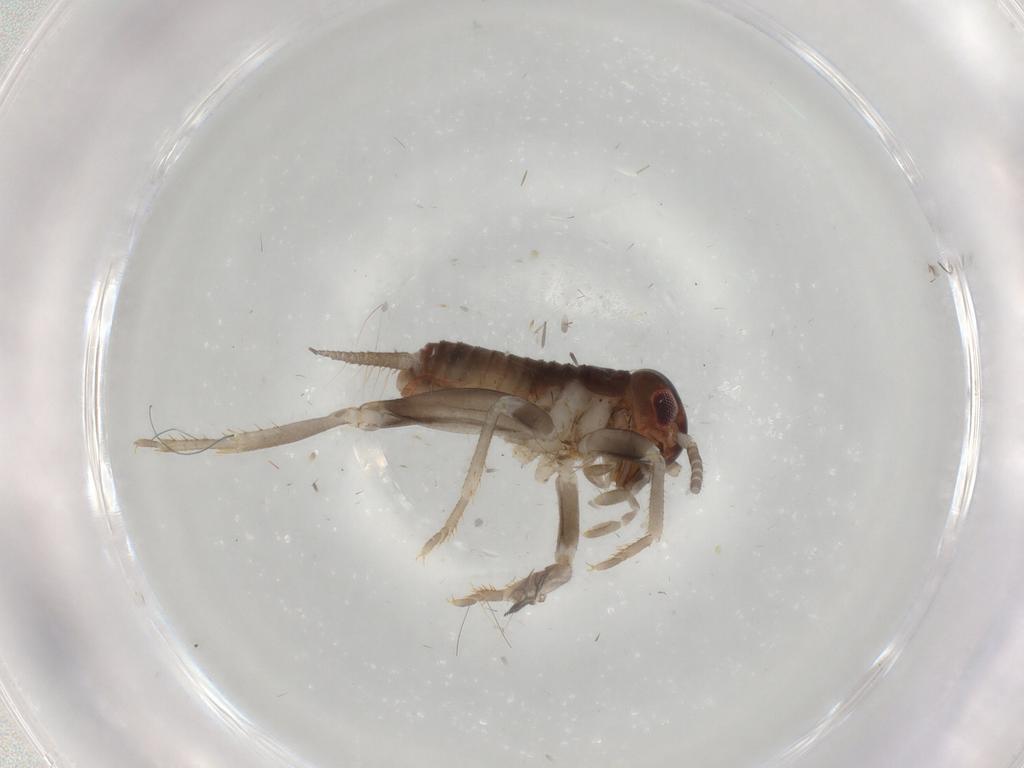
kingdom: Animalia
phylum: Arthropoda
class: Insecta
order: Orthoptera
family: Gryllidae
